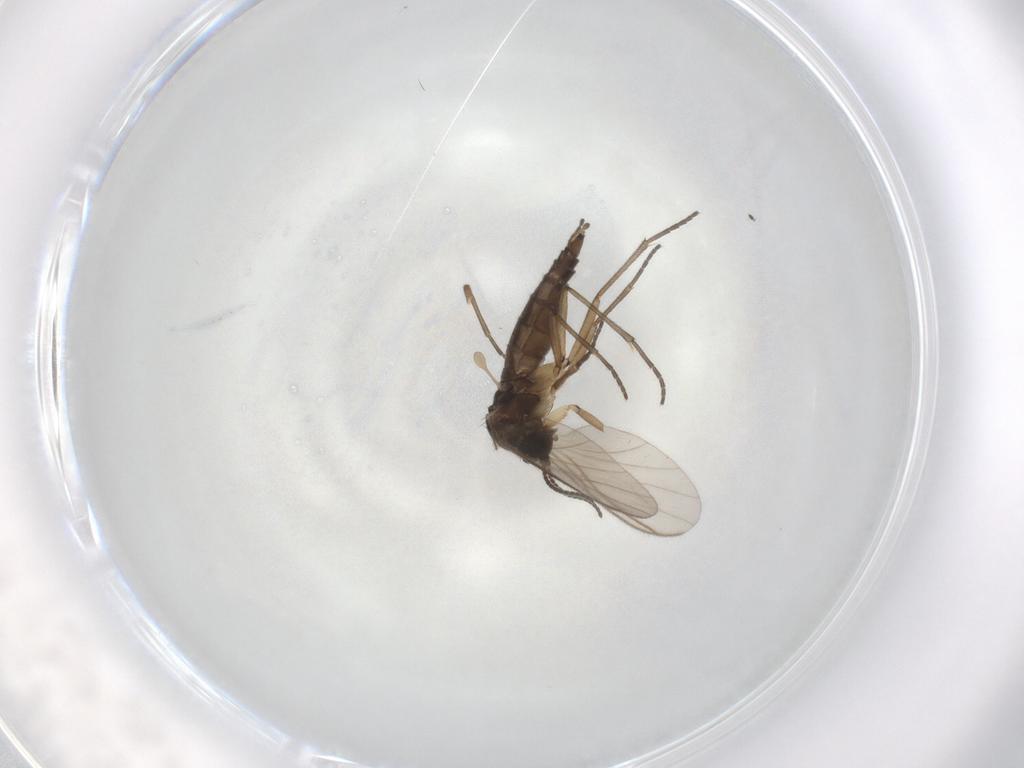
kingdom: Animalia
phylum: Arthropoda
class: Insecta
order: Diptera
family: Sciaridae
